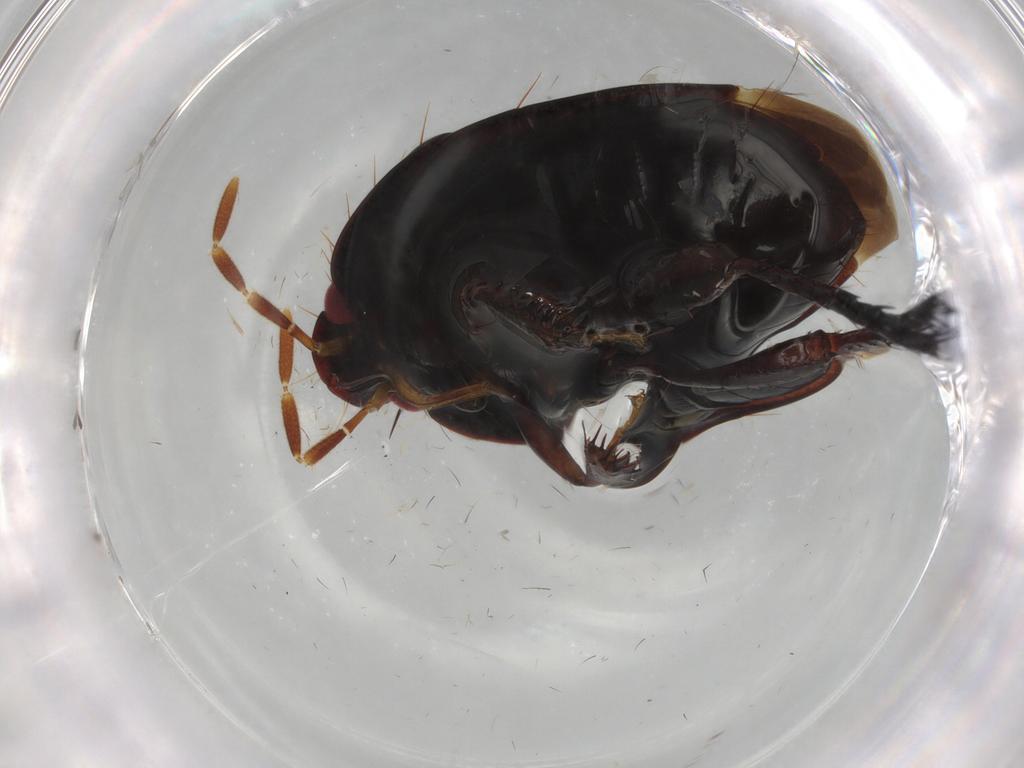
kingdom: Animalia
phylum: Arthropoda
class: Insecta
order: Hemiptera
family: Cydnidae
